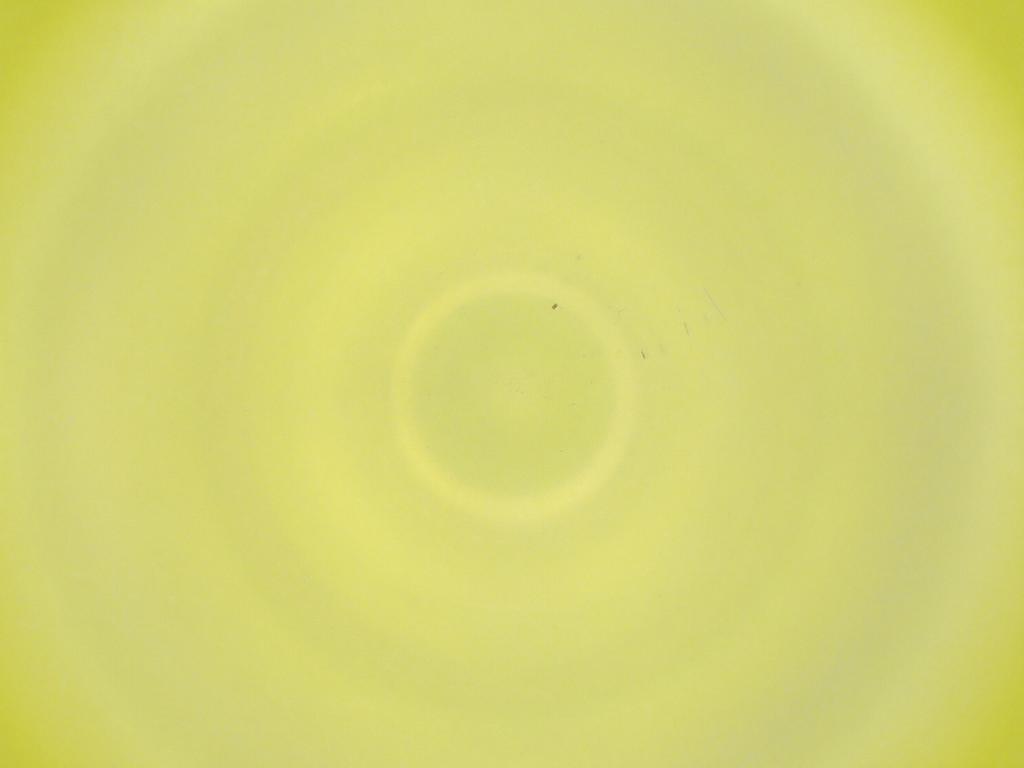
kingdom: Animalia
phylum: Arthropoda
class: Insecta
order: Diptera
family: Cecidomyiidae
